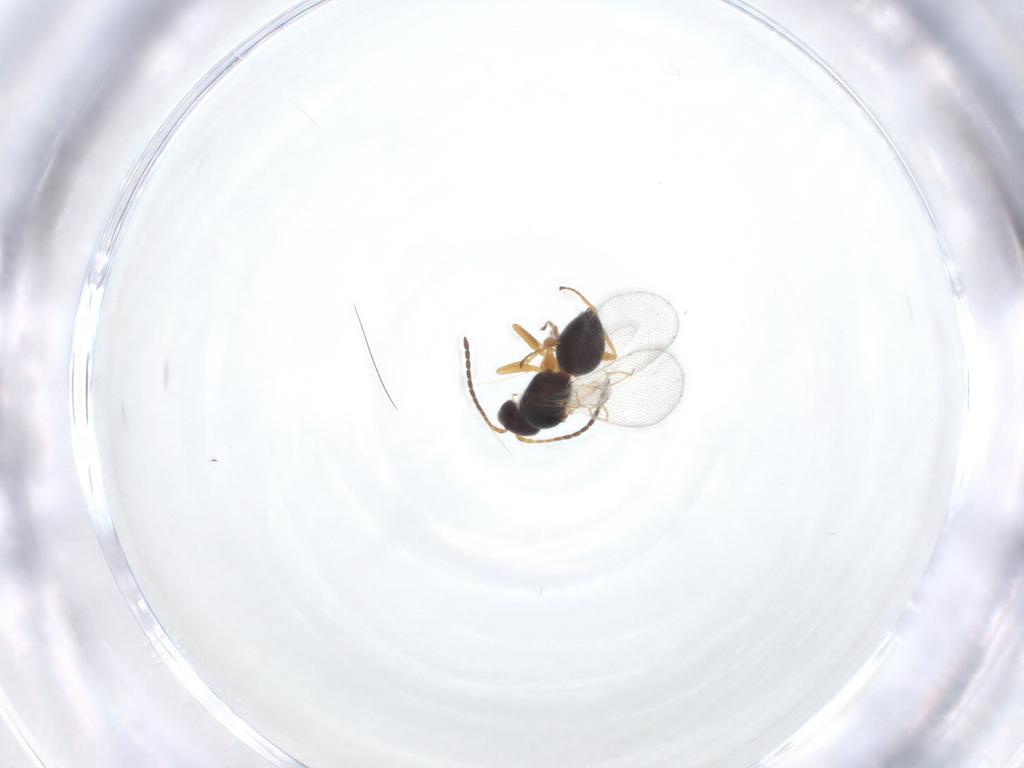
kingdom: Animalia
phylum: Arthropoda
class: Insecta
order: Hymenoptera
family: Figitidae
